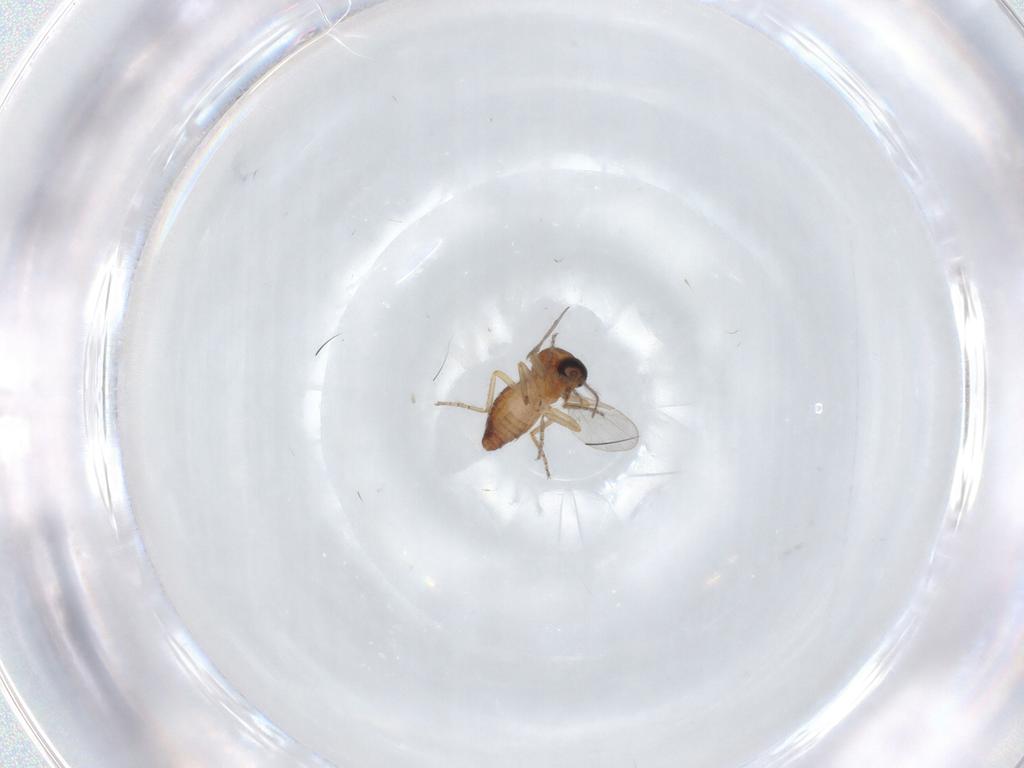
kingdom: Animalia
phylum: Arthropoda
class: Insecta
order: Diptera
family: Ceratopogonidae
